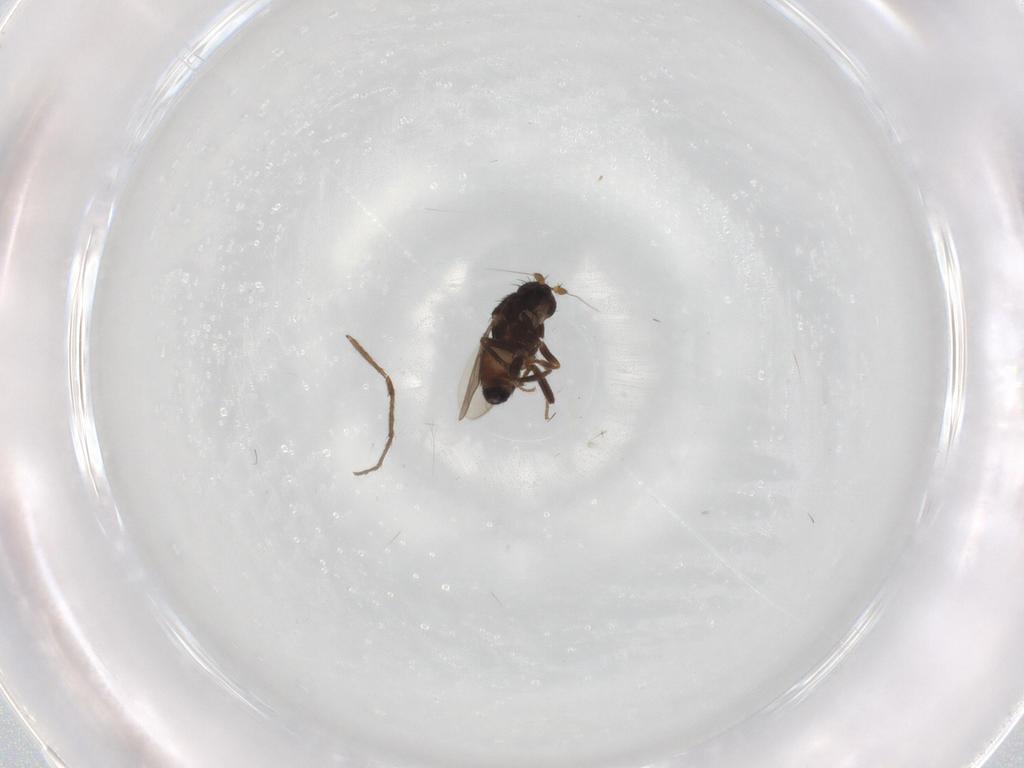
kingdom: Animalia
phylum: Arthropoda
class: Insecta
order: Diptera
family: Sphaeroceridae
